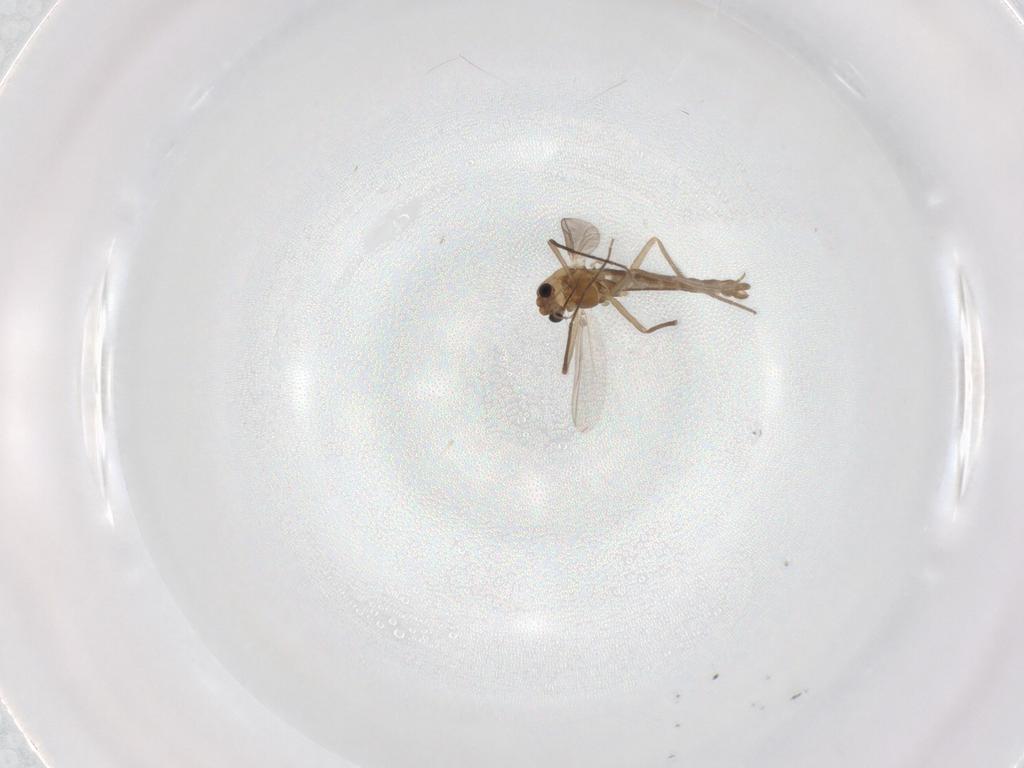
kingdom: Animalia
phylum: Arthropoda
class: Insecta
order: Diptera
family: Chironomidae
